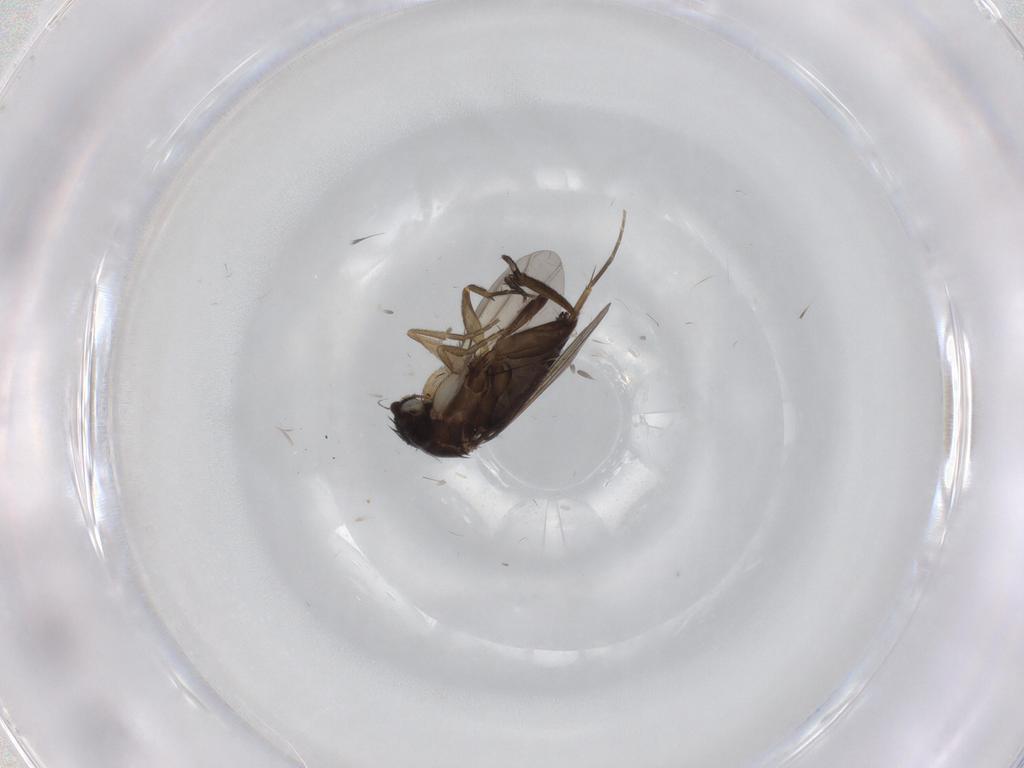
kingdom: Animalia
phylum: Arthropoda
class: Insecta
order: Diptera
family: Phoridae
